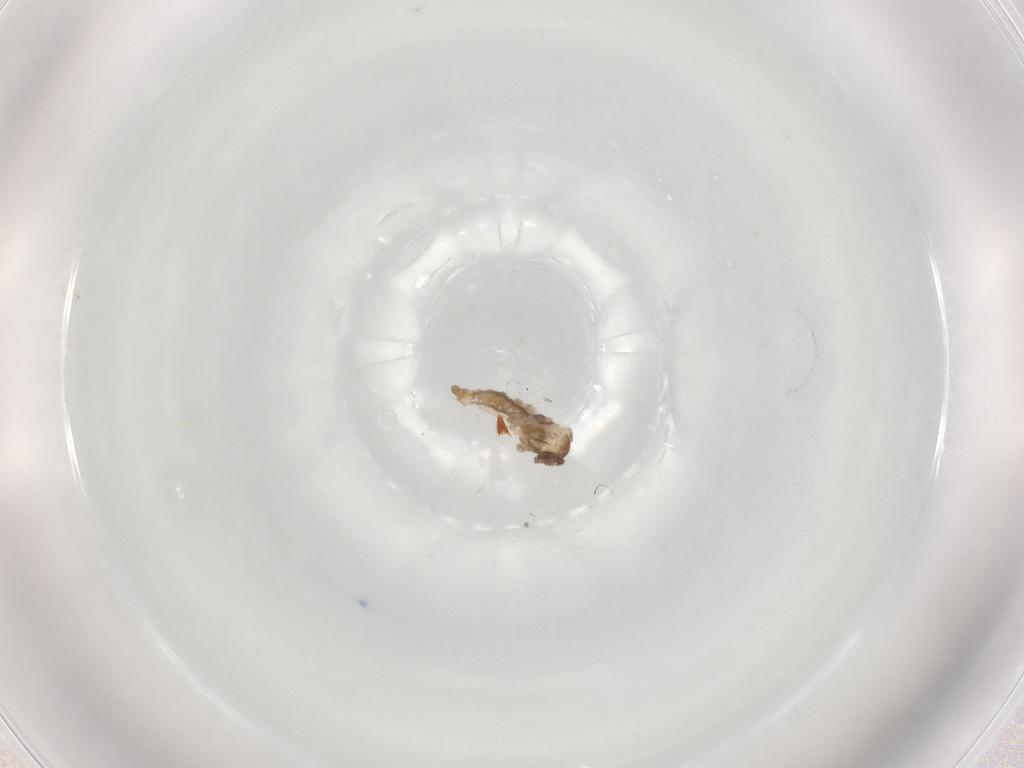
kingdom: Animalia
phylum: Arthropoda
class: Insecta
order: Diptera
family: Cecidomyiidae
